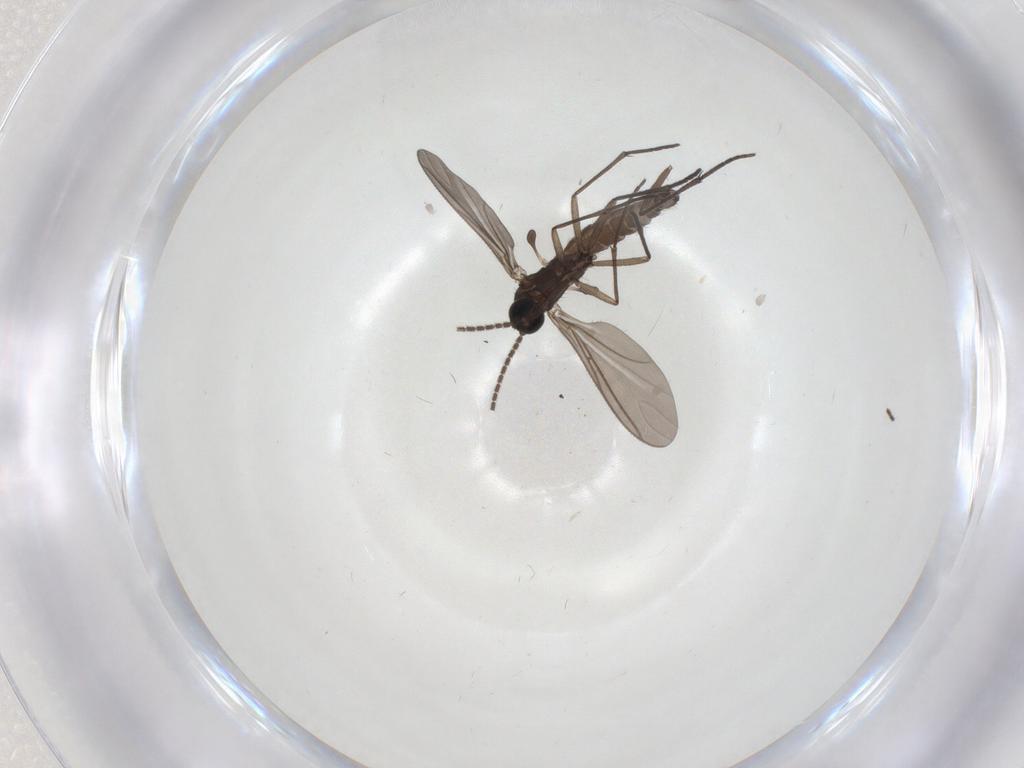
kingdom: Animalia
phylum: Arthropoda
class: Insecta
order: Diptera
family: Sciaridae
